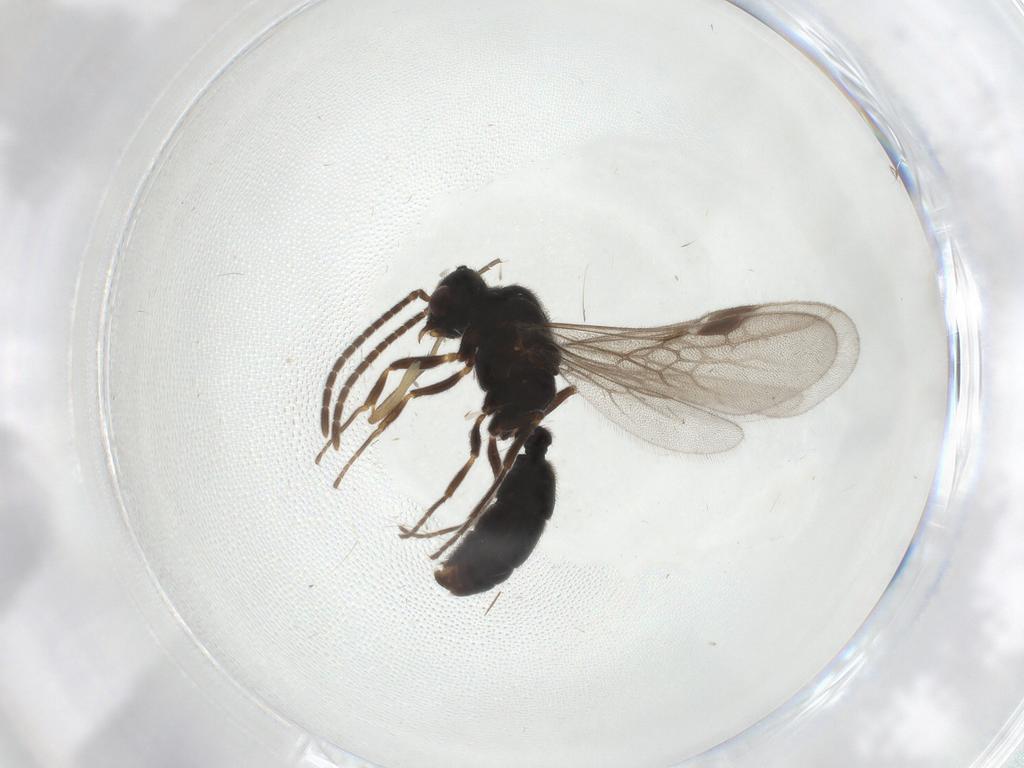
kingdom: Animalia
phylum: Arthropoda
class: Insecta
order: Hymenoptera
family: Formicidae
